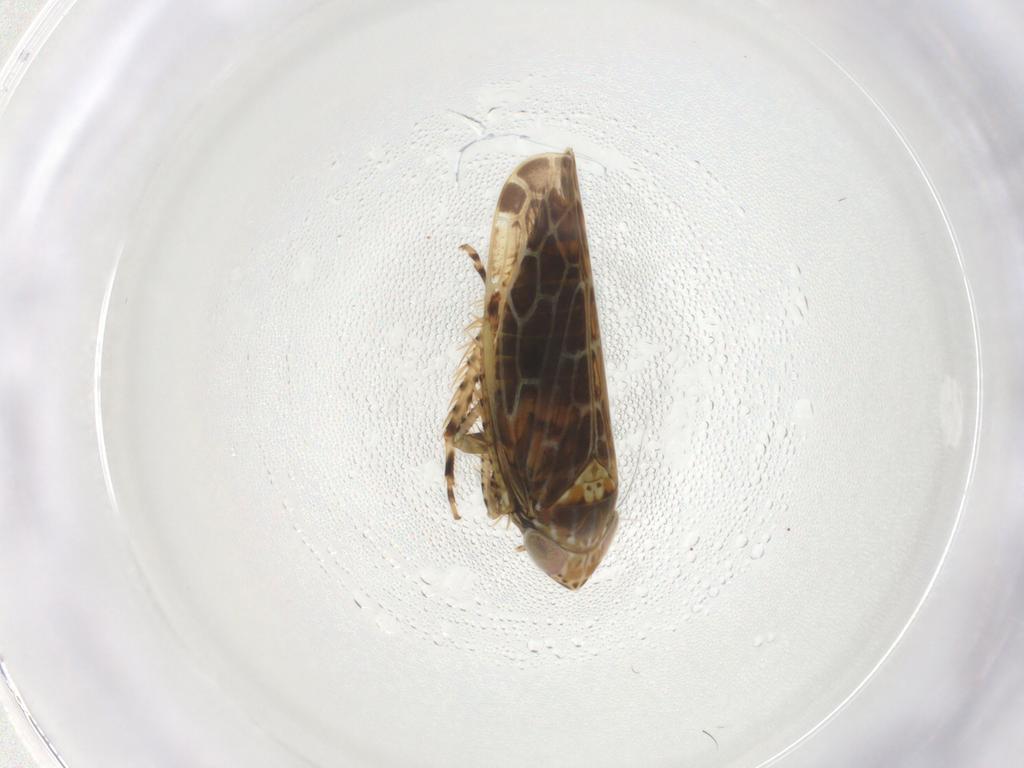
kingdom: Animalia
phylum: Arthropoda
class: Insecta
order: Hemiptera
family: Cicadellidae
